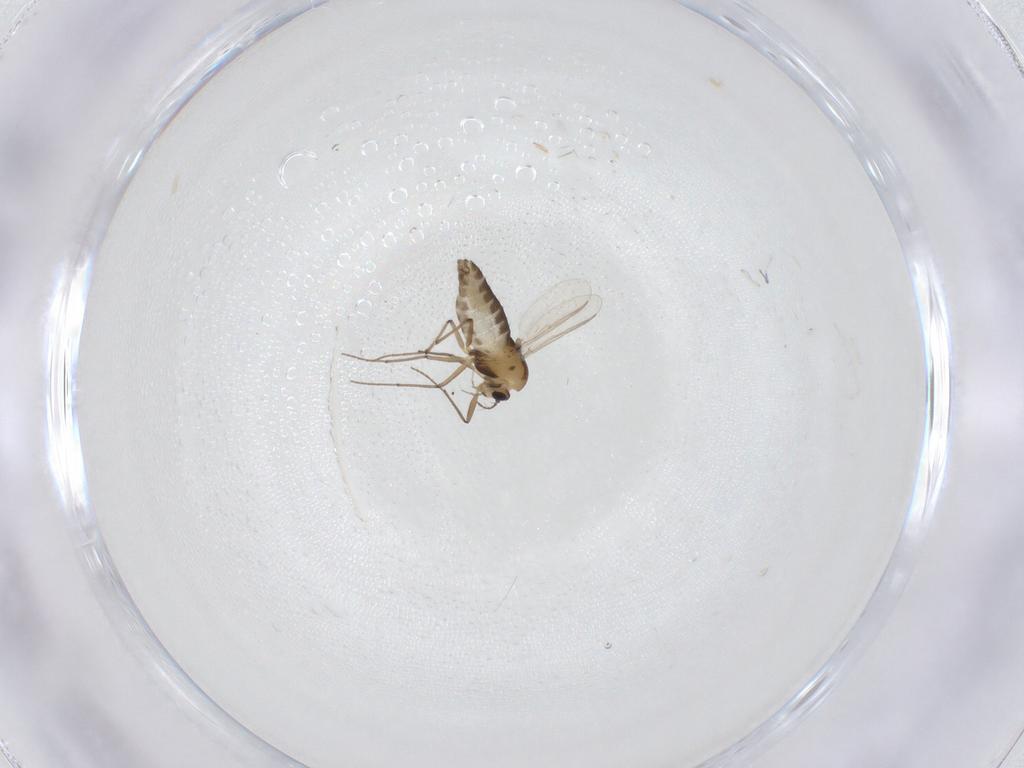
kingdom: Animalia
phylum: Arthropoda
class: Insecta
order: Diptera
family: Chironomidae
